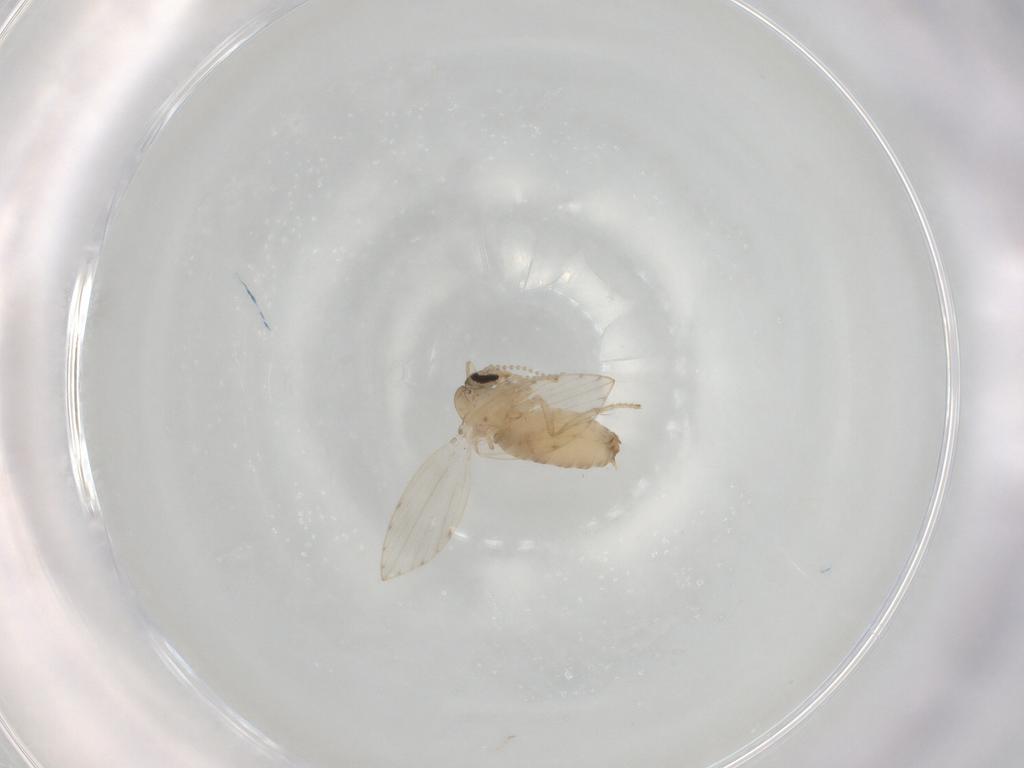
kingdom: Animalia
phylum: Arthropoda
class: Insecta
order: Diptera
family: Psychodidae
